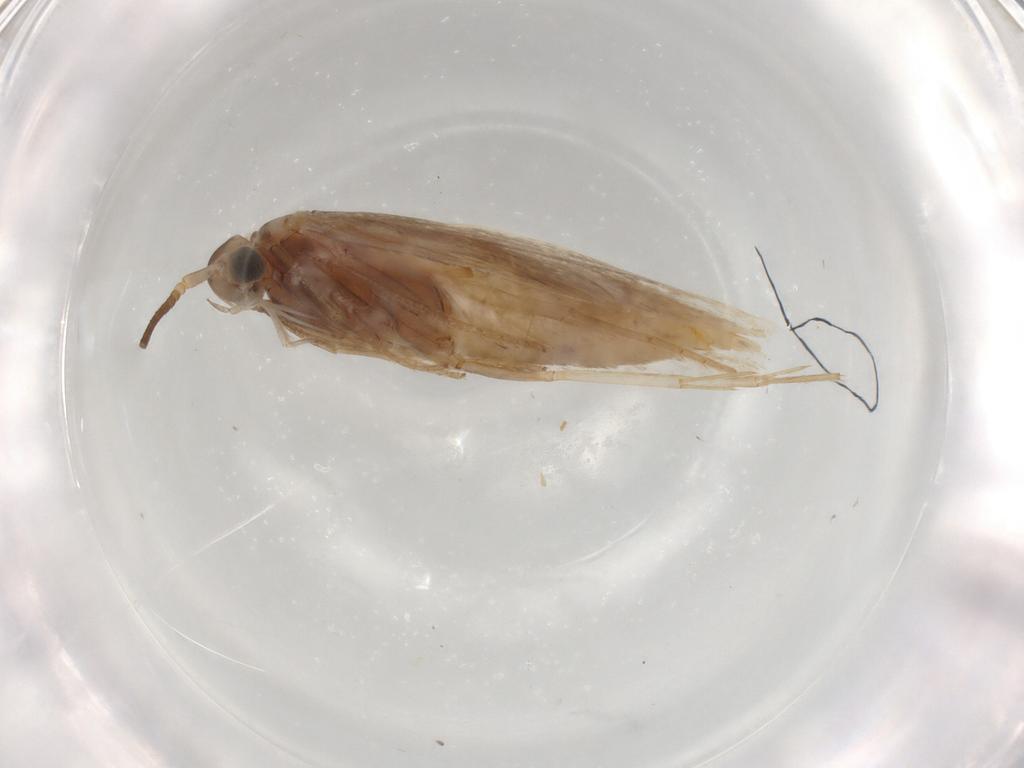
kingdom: Animalia
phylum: Arthropoda
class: Insecta
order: Lepidoptera
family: Coleophoridae
